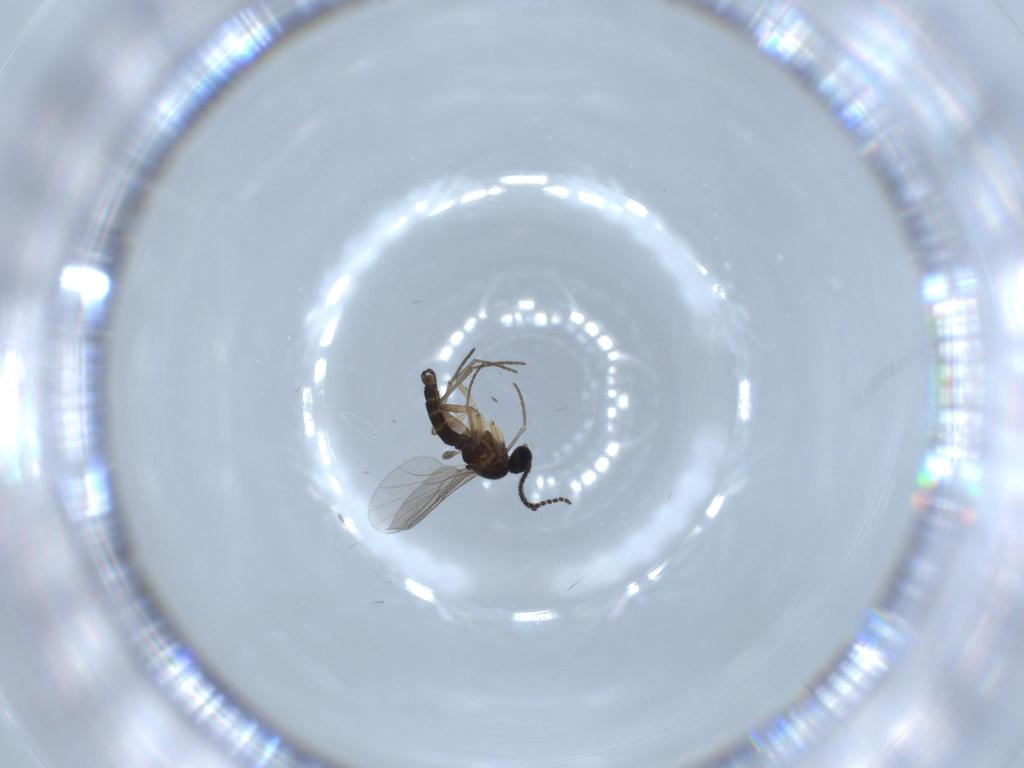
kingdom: Animalia
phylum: Arthropoda
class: Insecta
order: Diptera
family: Sciaridae
